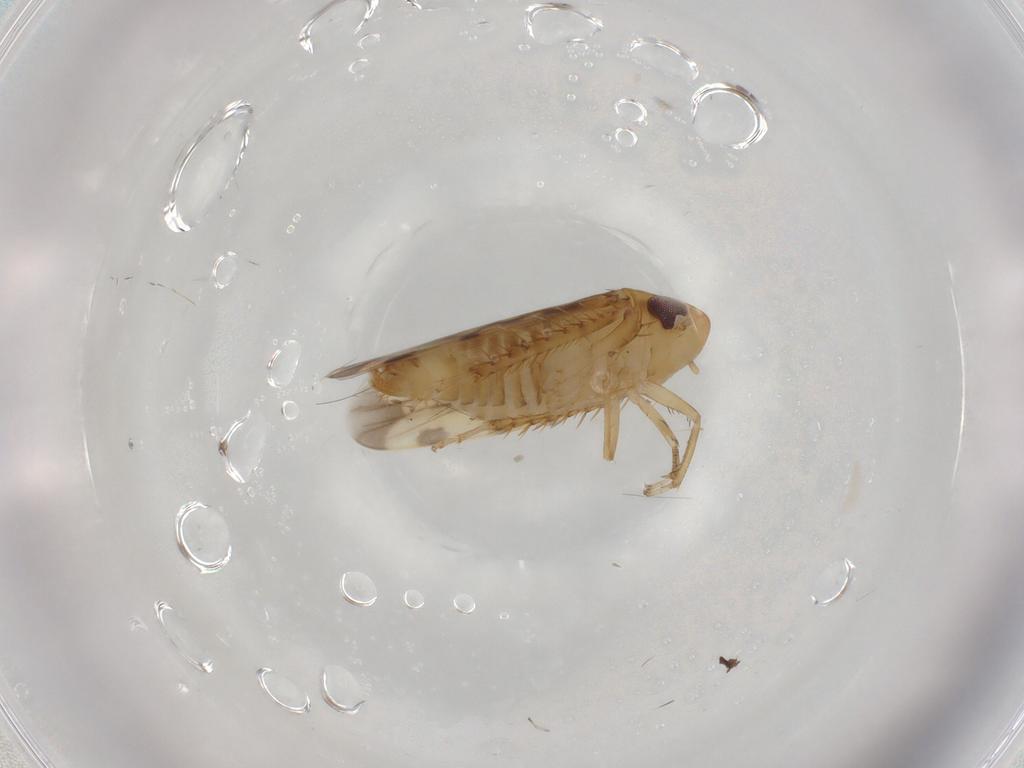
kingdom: Animalia
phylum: Arthropoda
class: Insecta
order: Hemiptera
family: Cicadellidae
